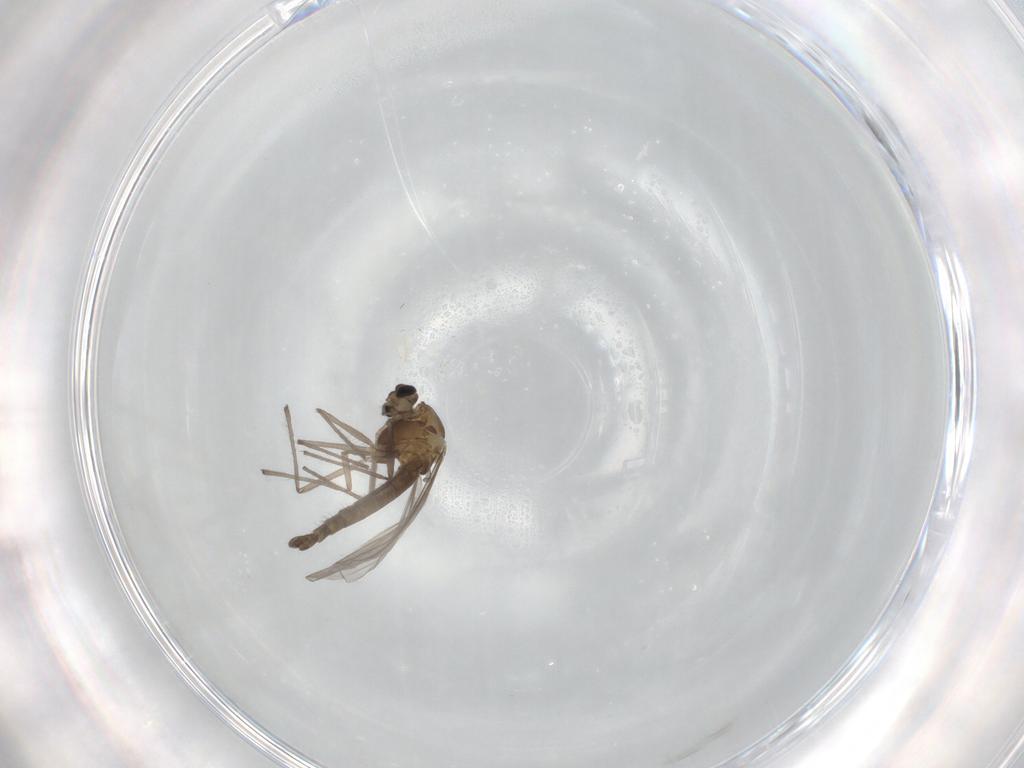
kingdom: Animalia
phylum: Arthropoda
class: Insecta
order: Diptera
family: Chironomidae
